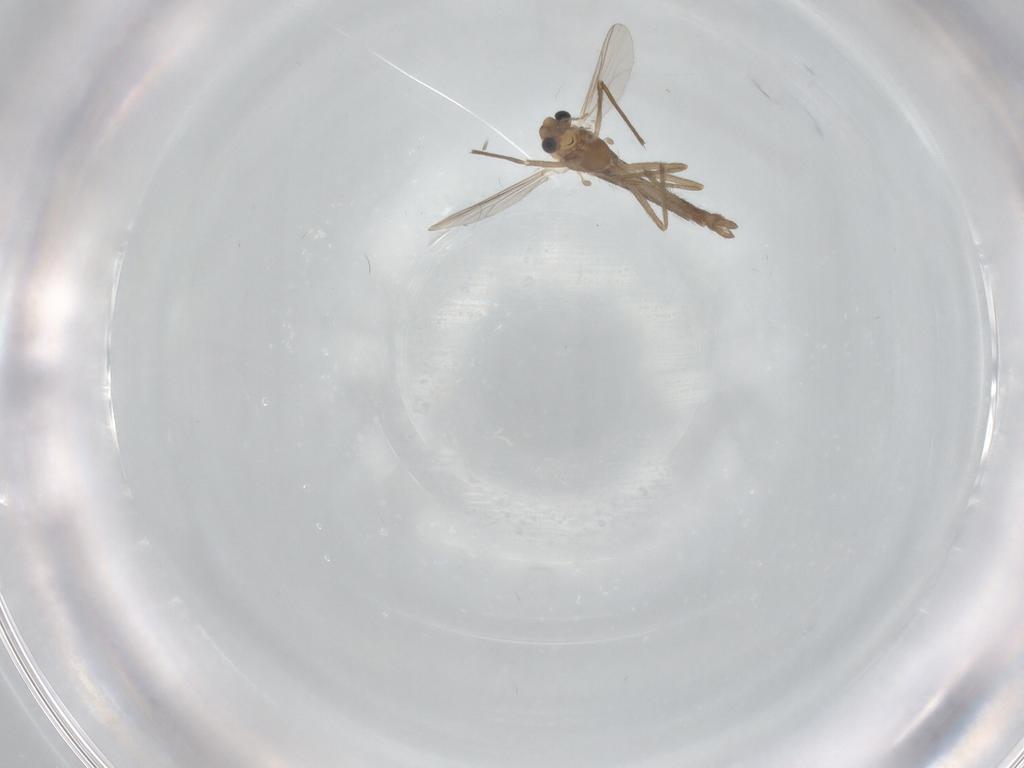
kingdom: Animalia
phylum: Arthropoda
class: Insecta
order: Diptera
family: Chironomidae
